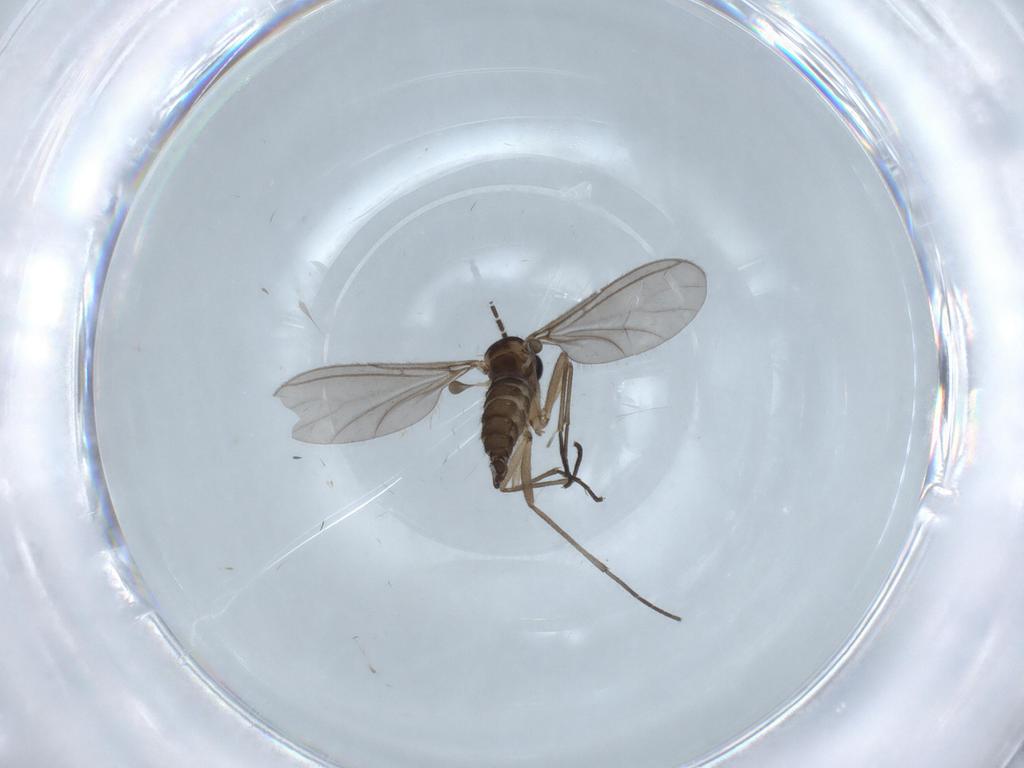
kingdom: Animalia
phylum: Arthropoda
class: Insecta
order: Diptera
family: Sciaridae
